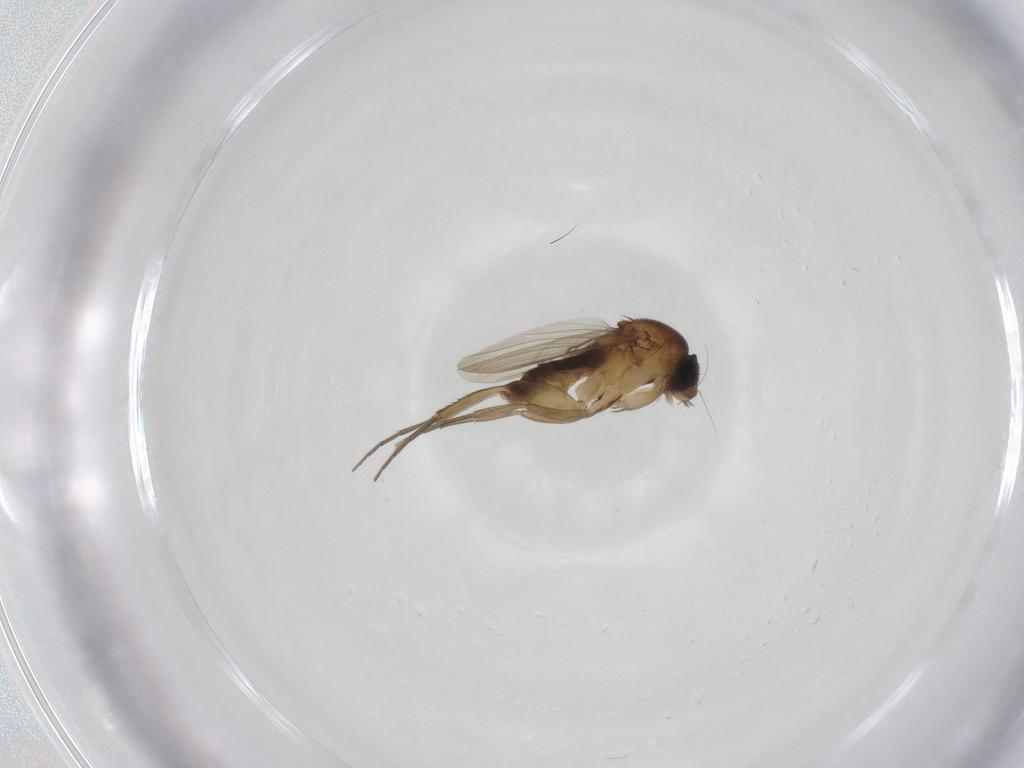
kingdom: Animalia
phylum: Arthropoda
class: Insecta
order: Diptera
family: Phoridae
